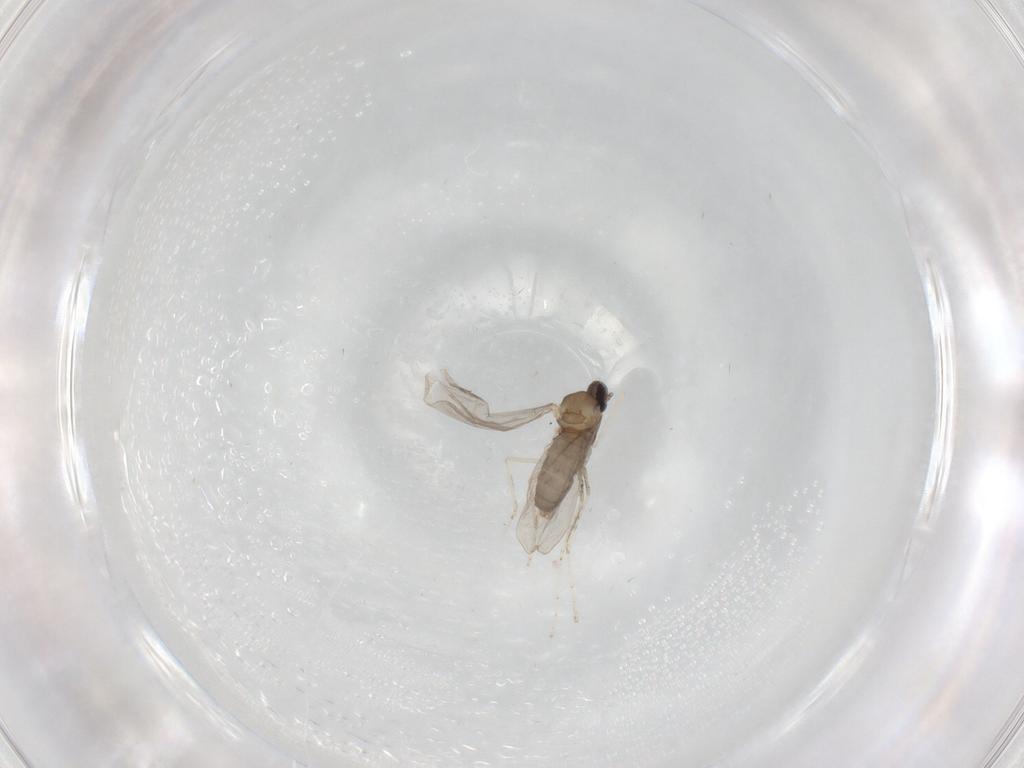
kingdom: Animalia
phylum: Arthropoda
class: Insecta
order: Diptera
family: Cecidomyiidae
